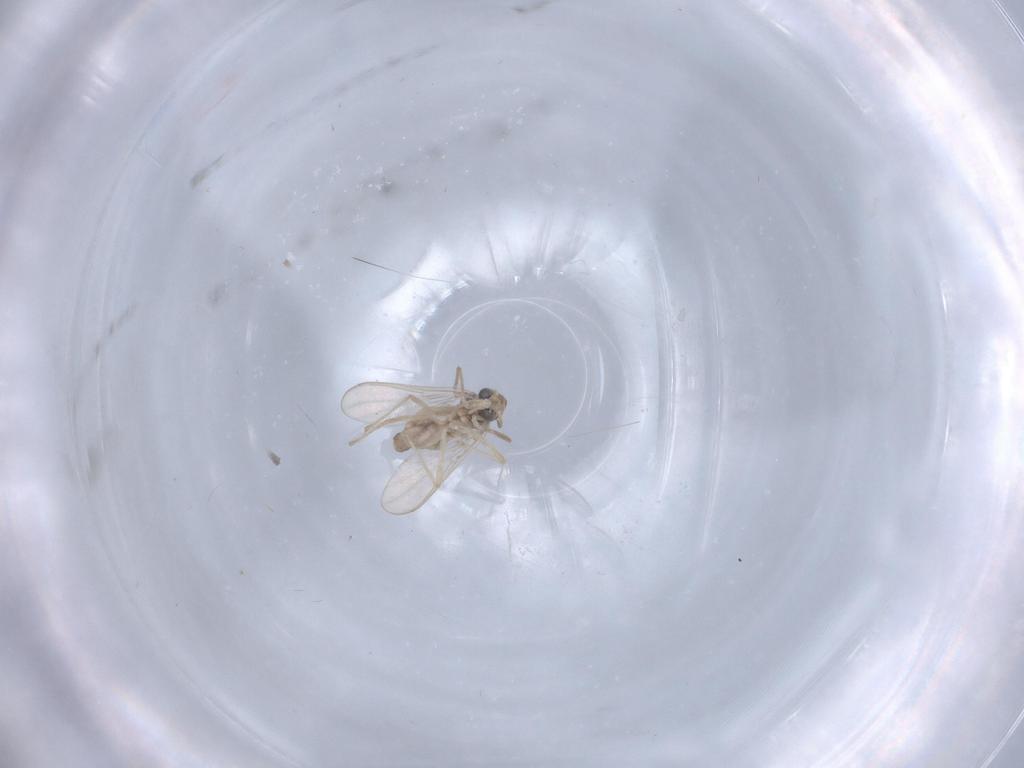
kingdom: Animalia
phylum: Arthropoda
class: Insecta
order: Diptera
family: Chironomidae
